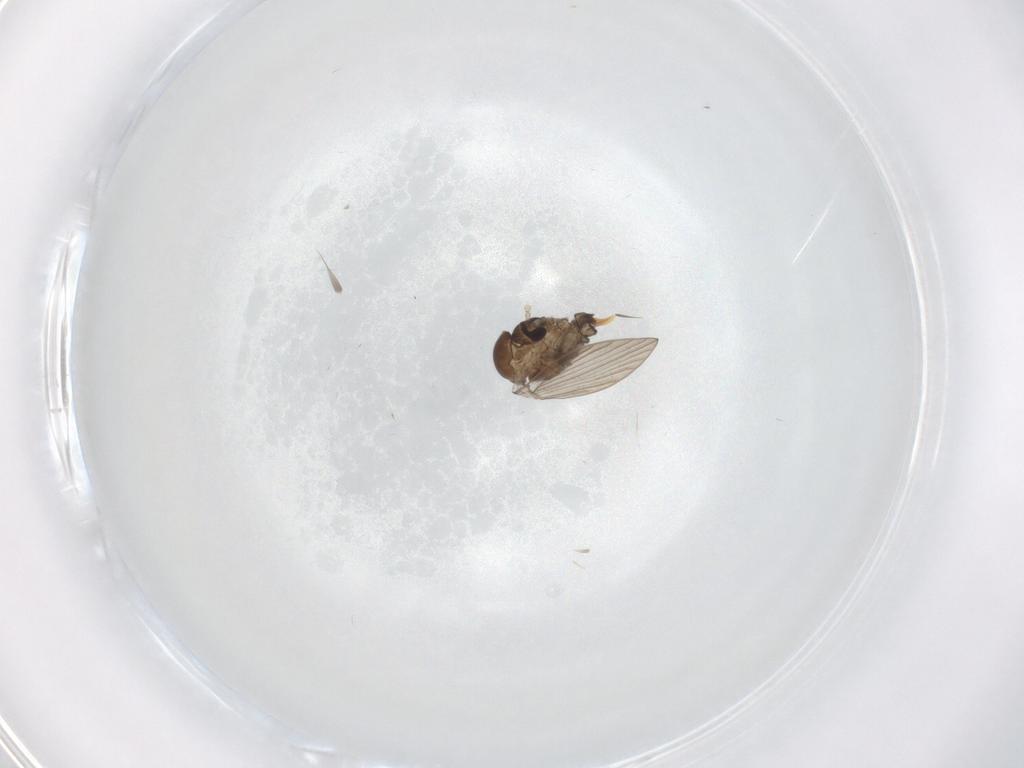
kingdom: Animalia
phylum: Arthropoda
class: Insecta
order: Diptera
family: Psychodidae
